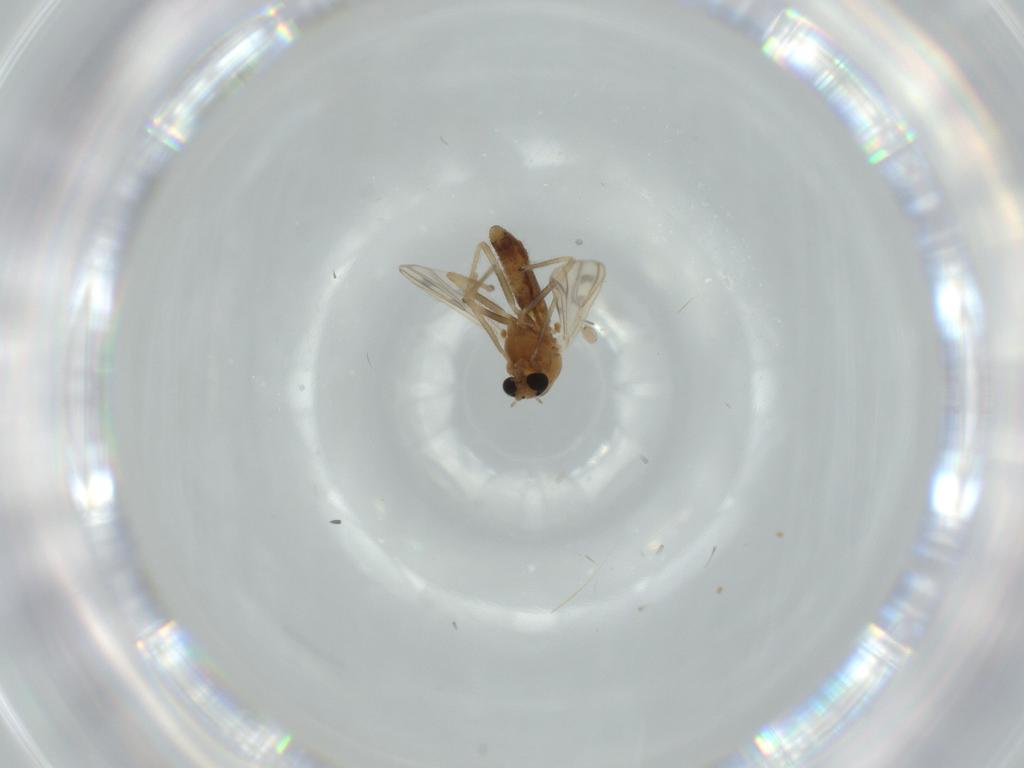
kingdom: Animalia
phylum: Arthropoda
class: Insecta
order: Diptera
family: Chironomidae
